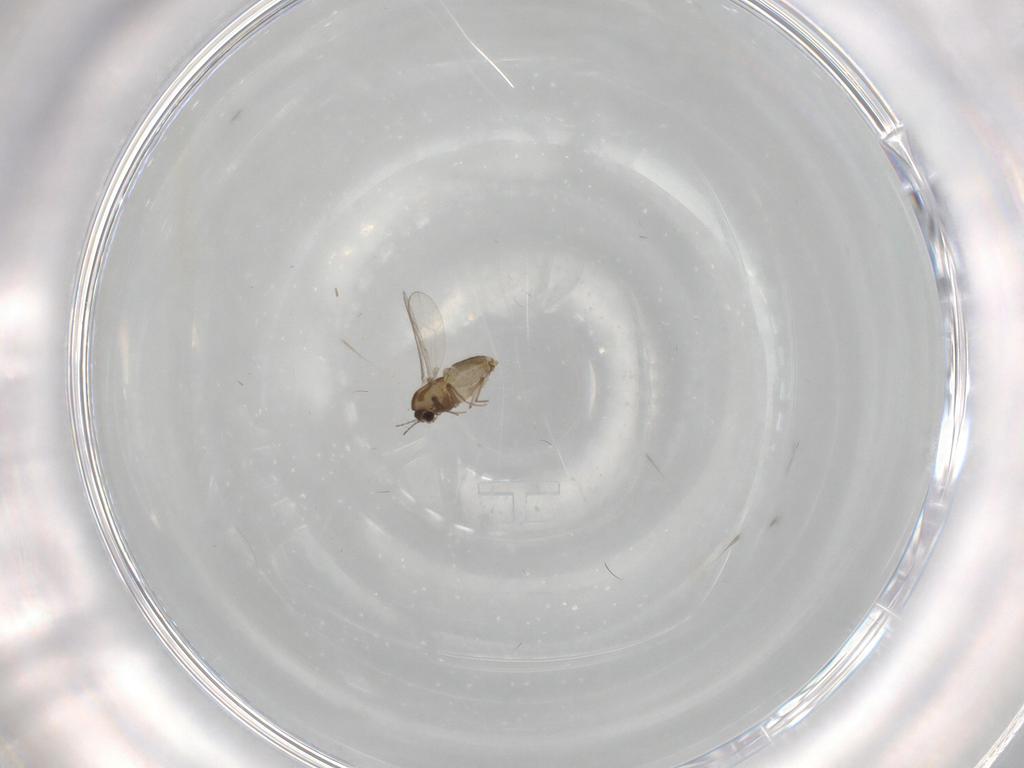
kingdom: Animalia
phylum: Arthropoda
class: Insecta
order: Diptera
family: Chironomidae
